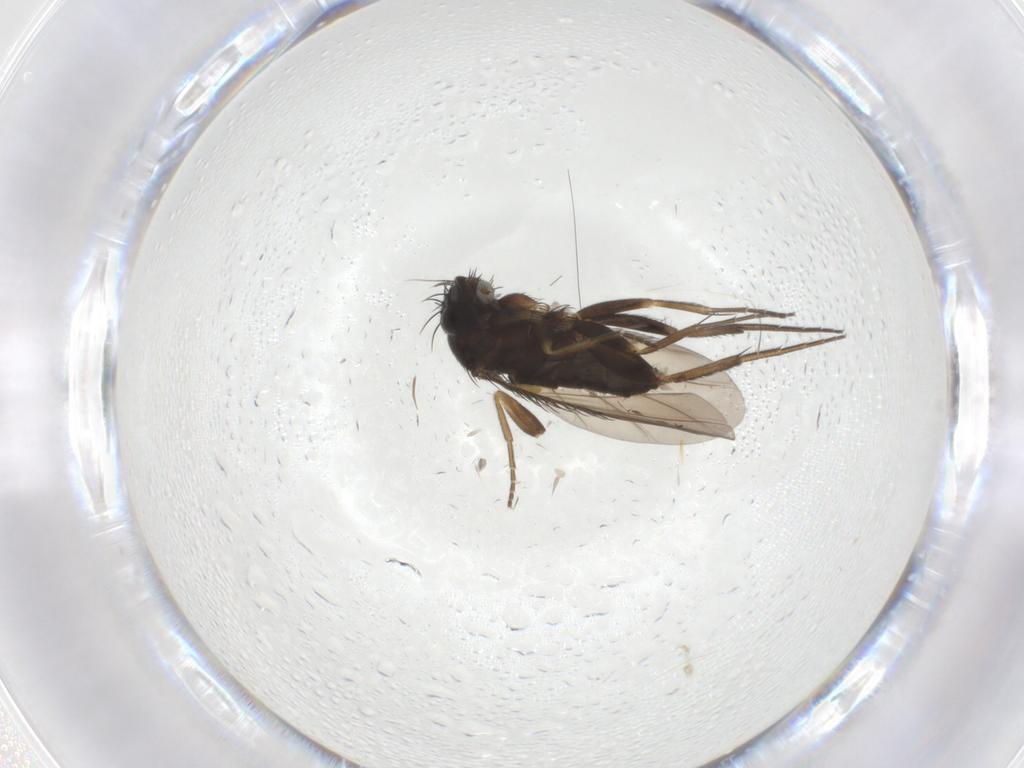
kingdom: Animalia
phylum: Arthropoda
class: Insecta
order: Diptera
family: Phoridae
